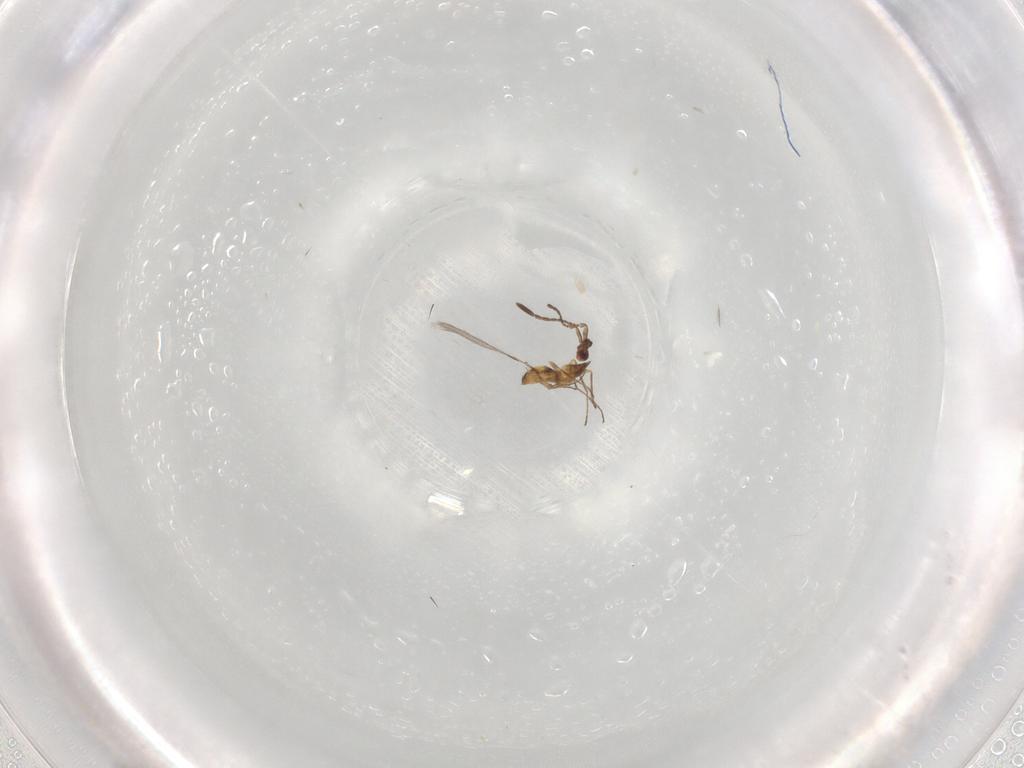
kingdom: Animalia
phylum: Arthropoda
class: Insecta
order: Hymenoptera
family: Mymaridae
